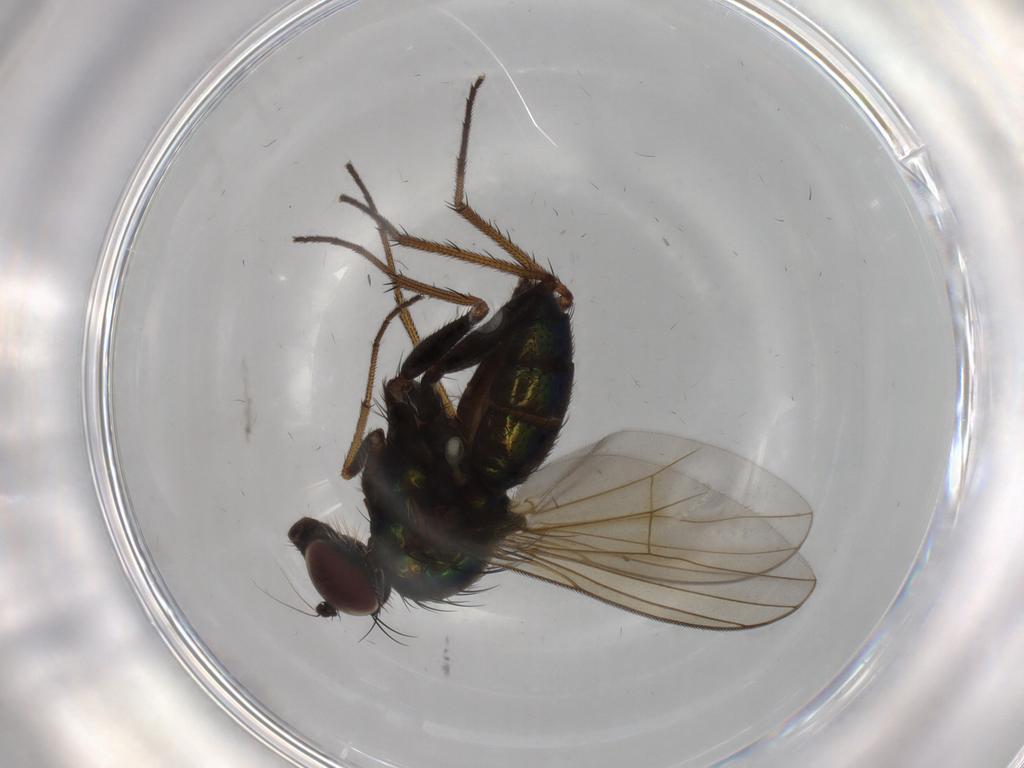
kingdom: Animalia
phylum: Arthropoda
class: Insecta
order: Diptera
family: Dolichopodidae
